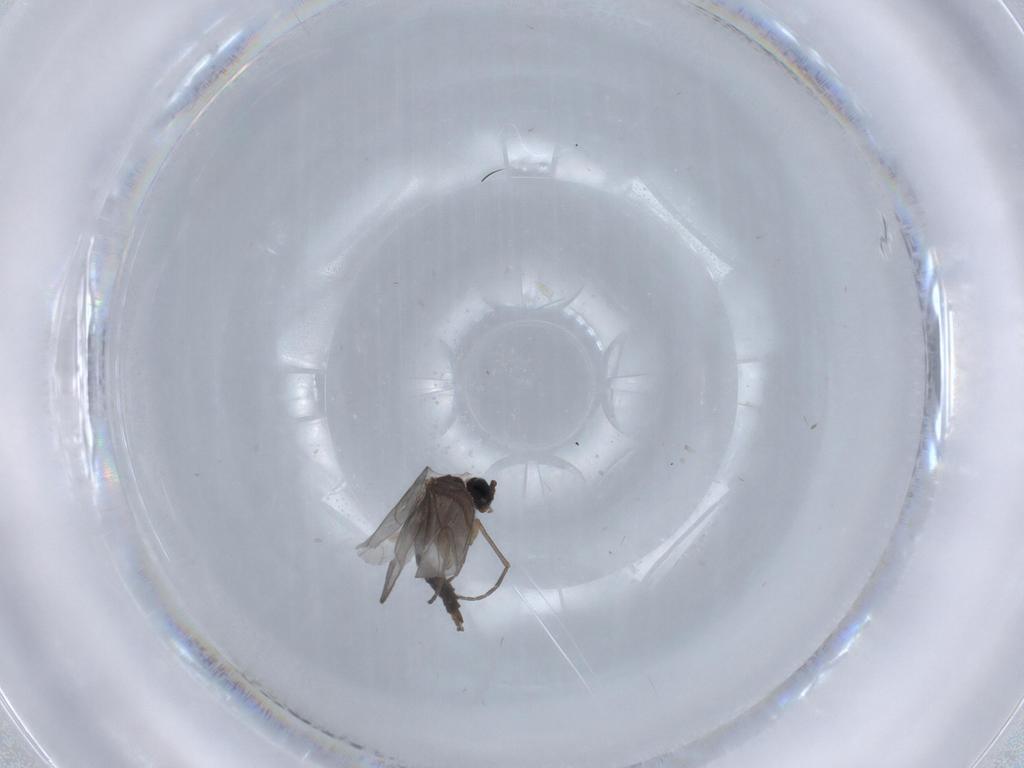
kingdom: Animalia
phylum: Arthropoda
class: Insecta
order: Diptera
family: Sciaridae
